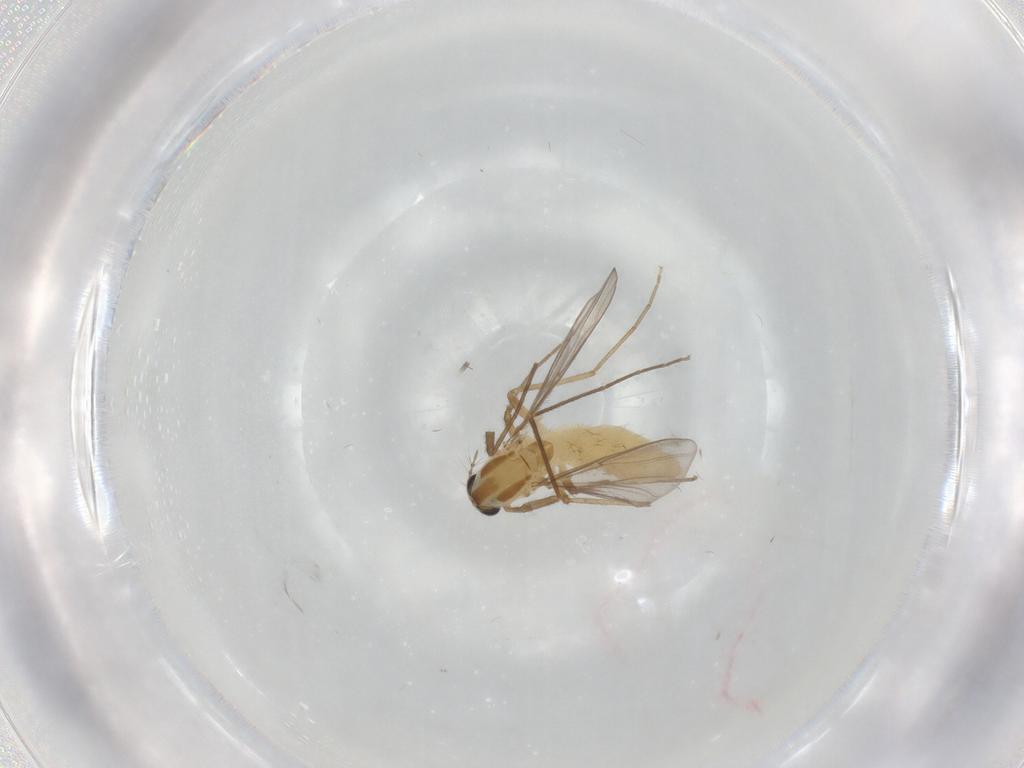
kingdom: Animalia
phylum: Arthropoda
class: Insecta
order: Diptera
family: Chironomidae
